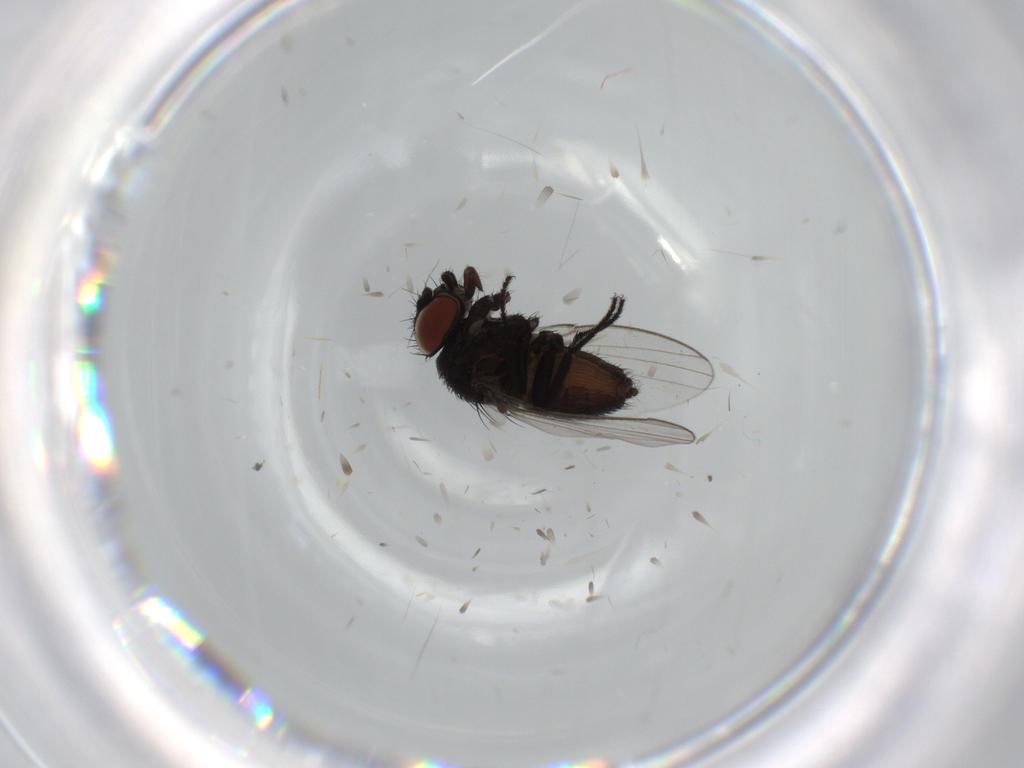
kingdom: Animalia
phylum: Arthropoda
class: Insecta
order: Diptera
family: Milichiidae
